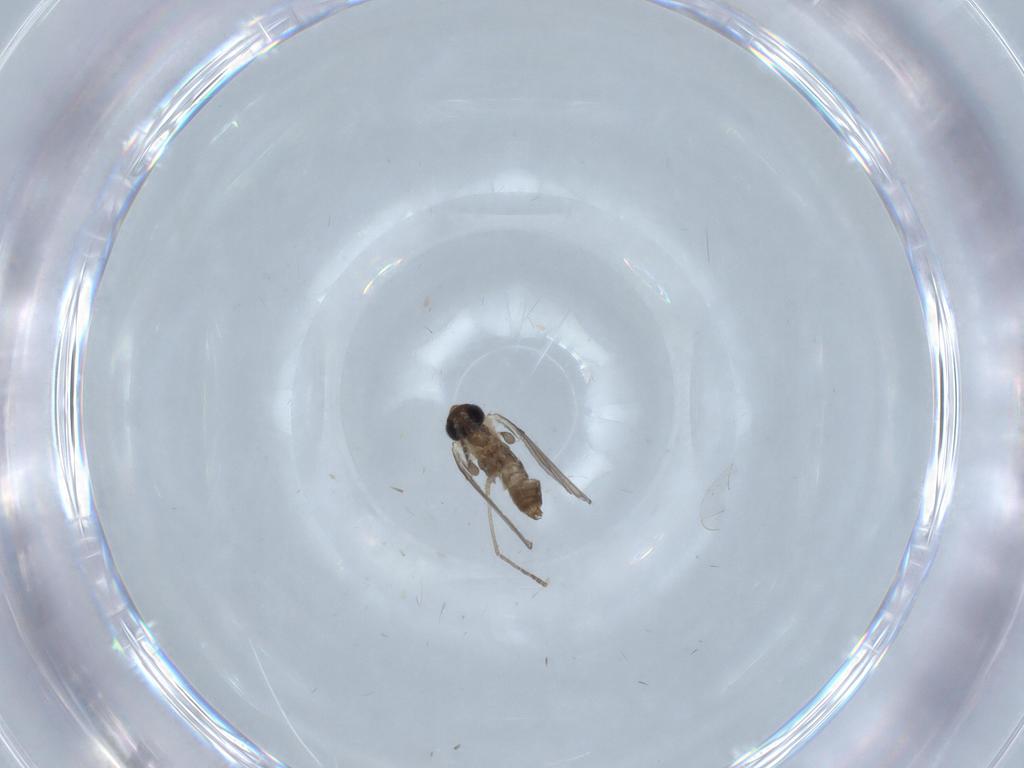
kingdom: Animalia
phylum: Arthropoda
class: Insecta
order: Diptera
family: Psychodidae
